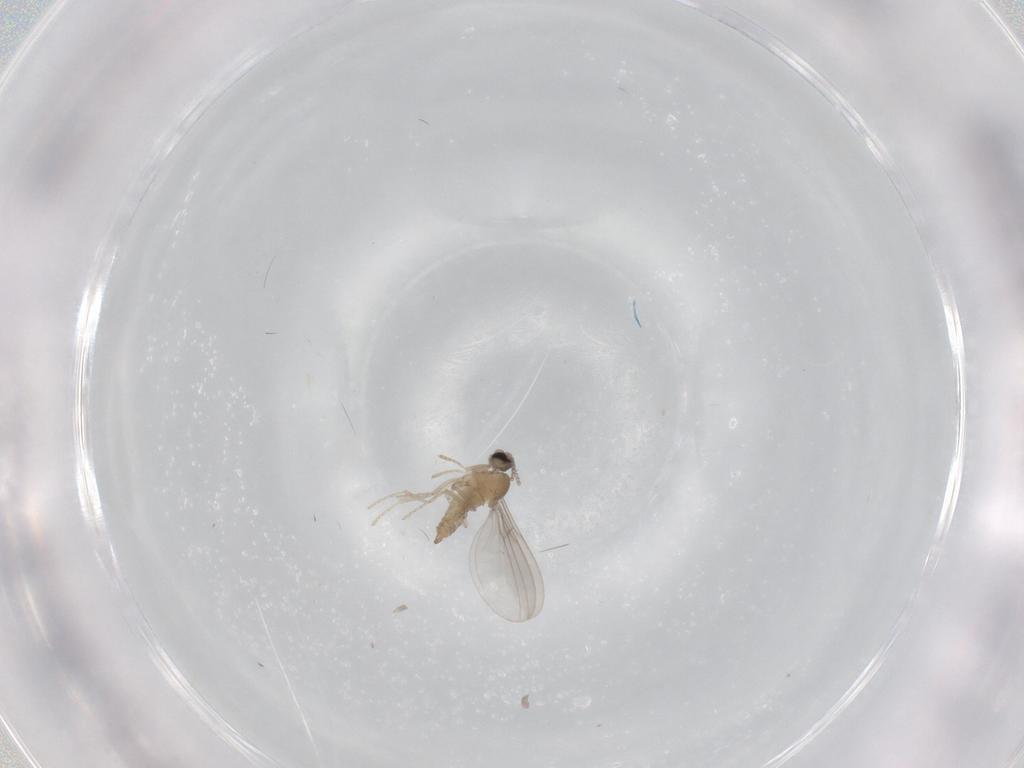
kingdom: Animalia
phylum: Arthropoda
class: Insecta
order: Diptera
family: Cecidomyiidae
